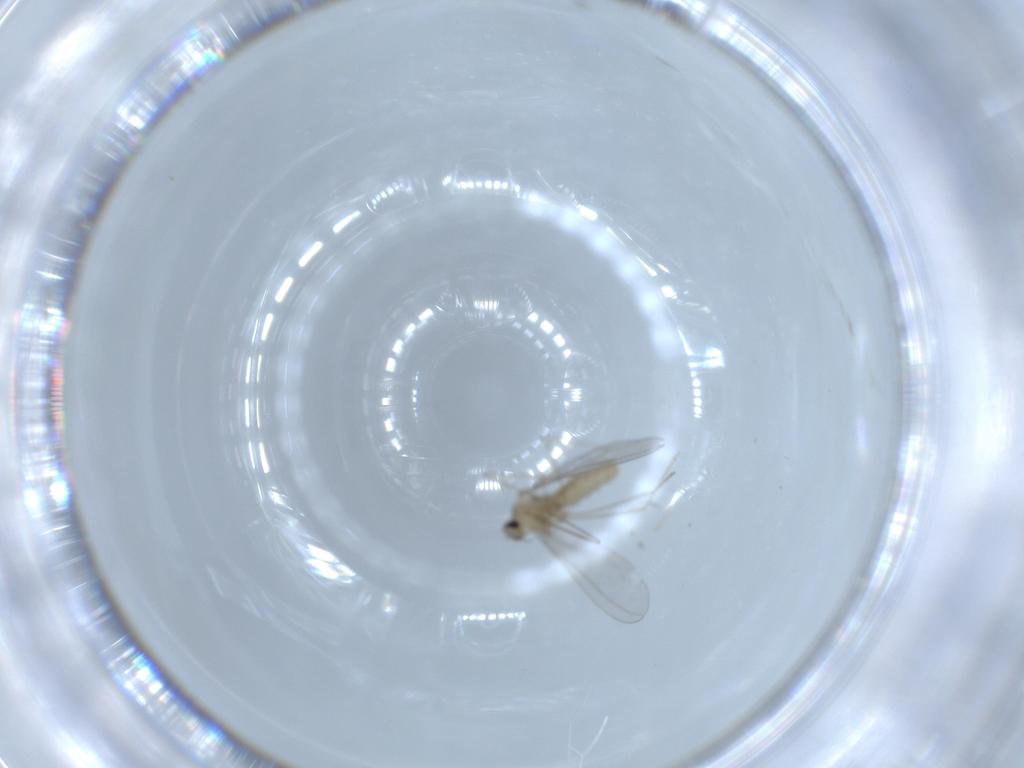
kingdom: Animalia
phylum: Arthropoda
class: Insecta
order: Diptera
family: Cecidomyiidae
